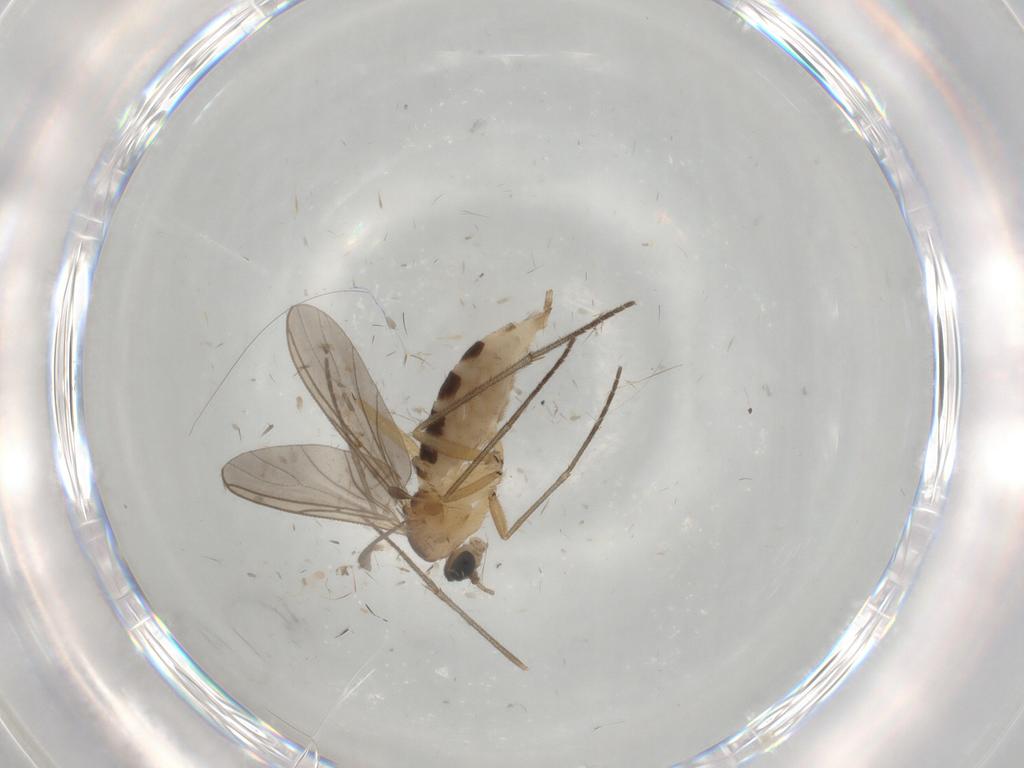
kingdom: Animalia
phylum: Arthropoda
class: Insecta
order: Diptera
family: Sciaridae
